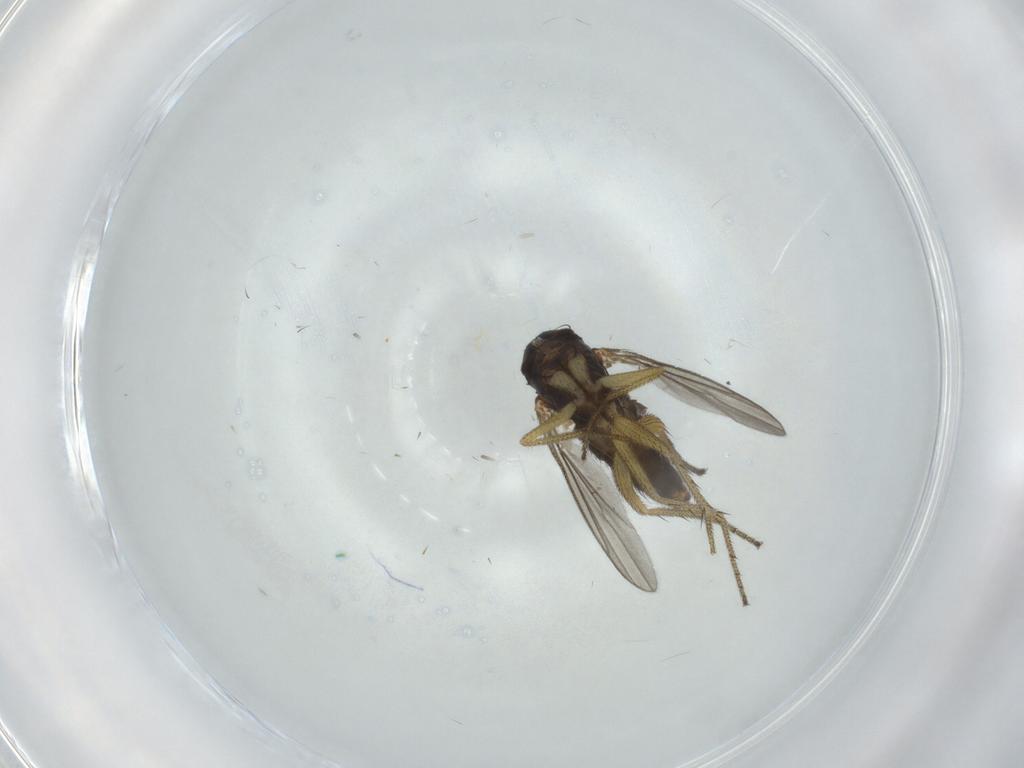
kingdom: Animalia
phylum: Arthropoda
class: Insecta
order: Diptera
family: Dolichopodidae
